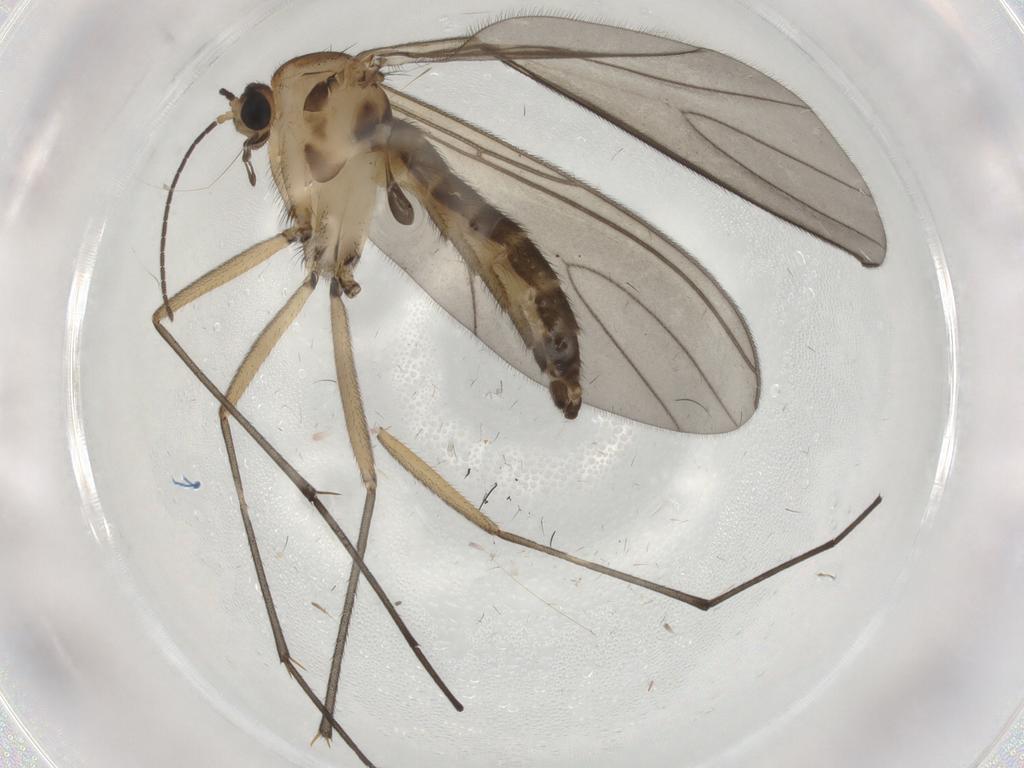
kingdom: Animalia
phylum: Arthropoda
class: Insecta
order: Diptera
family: Sciaridae
